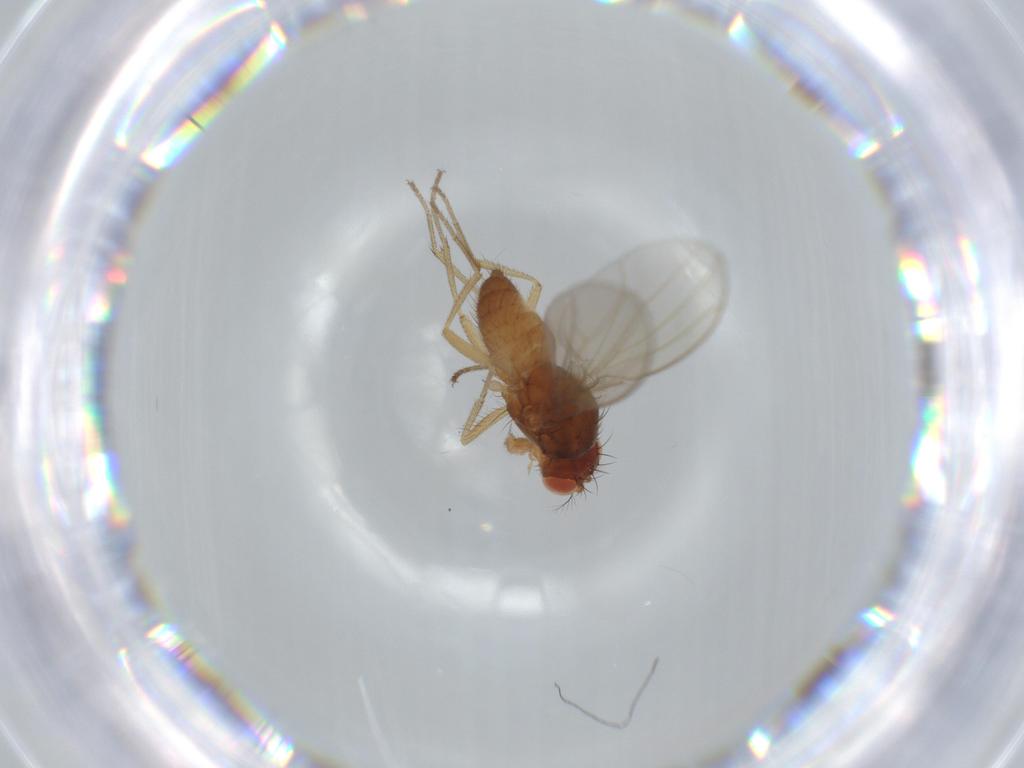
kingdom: Animalia
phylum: Arthropoda
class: Insecta
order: Diptera
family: Drosophilidae
